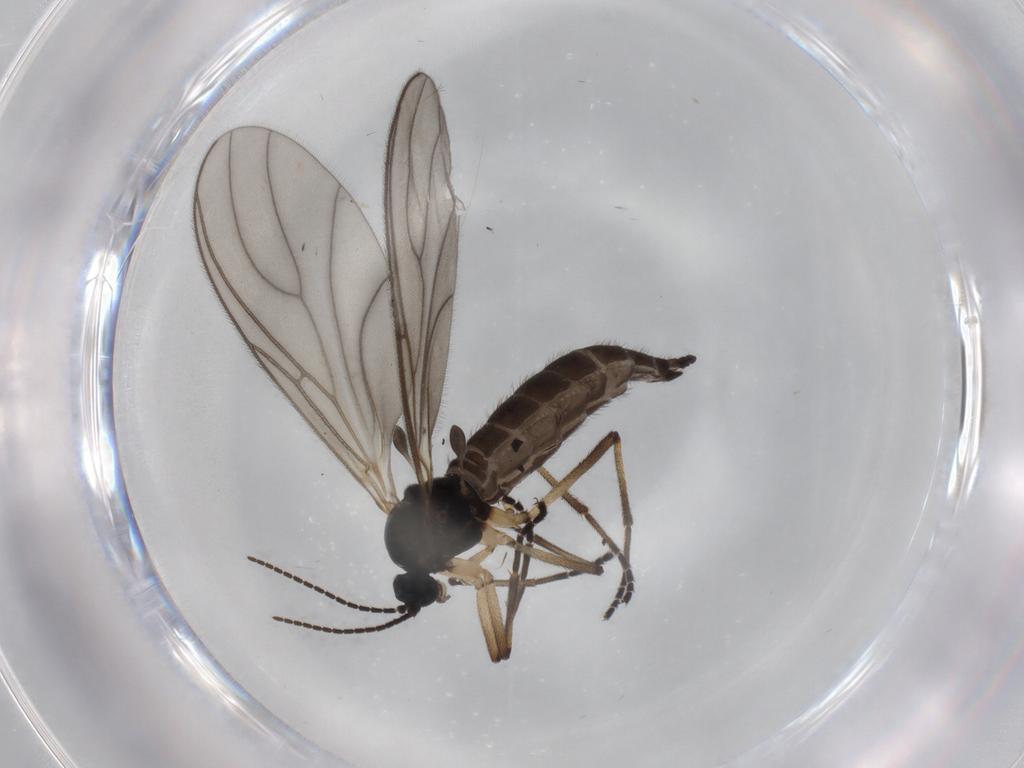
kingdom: Animalia
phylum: Arthropoda
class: Insecta
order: Diptera
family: Sciaridae
